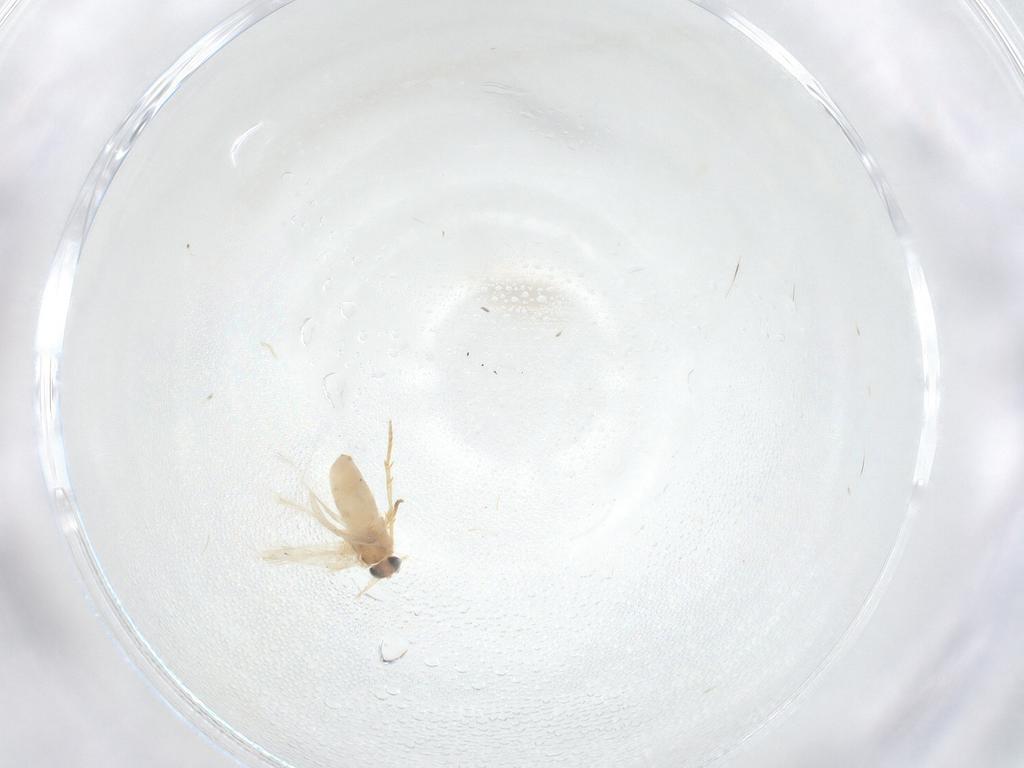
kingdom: Animalia
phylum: Arthropoda
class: Insecta
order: Lepidoptera
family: Crambidae
